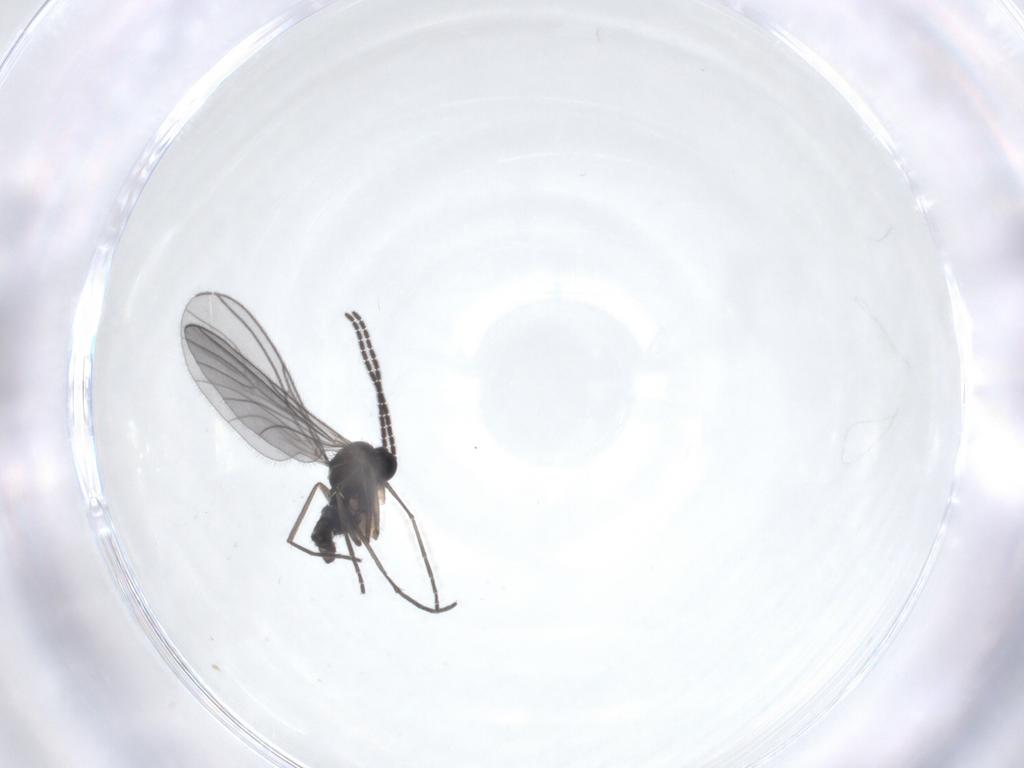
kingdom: Animalia
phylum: Arthropoda
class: Insecta
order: Diptera
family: Sciaridae
